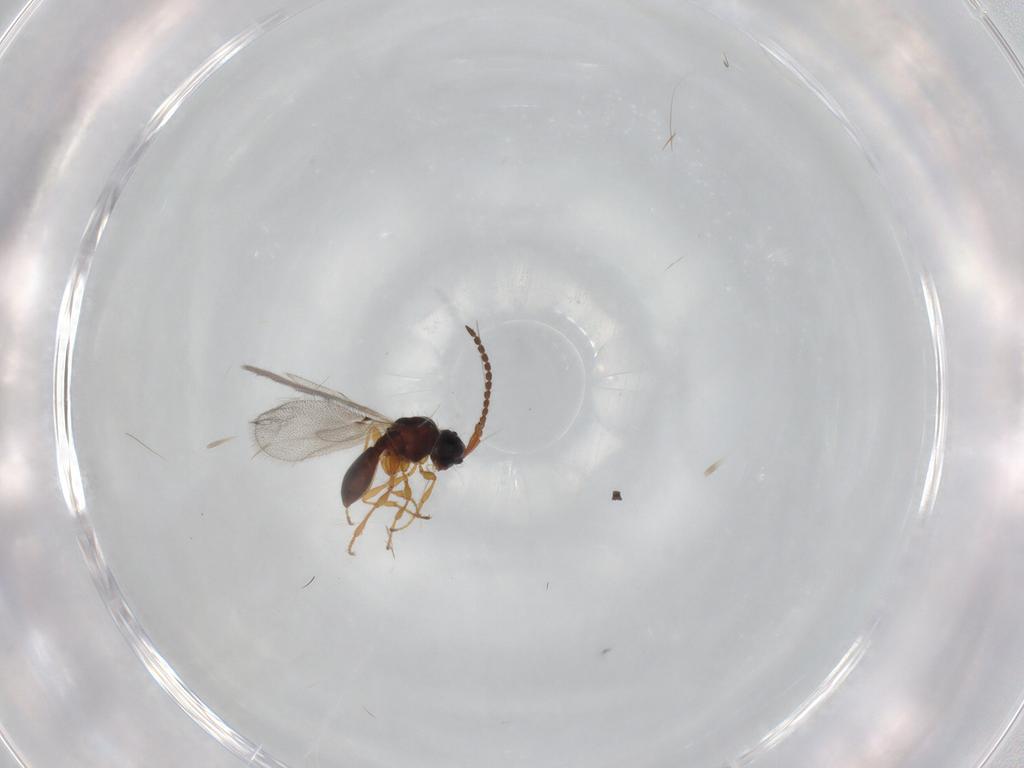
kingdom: Animalia
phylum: Arthropoda
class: Insecta
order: Hymenoptera
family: Diapriidae
